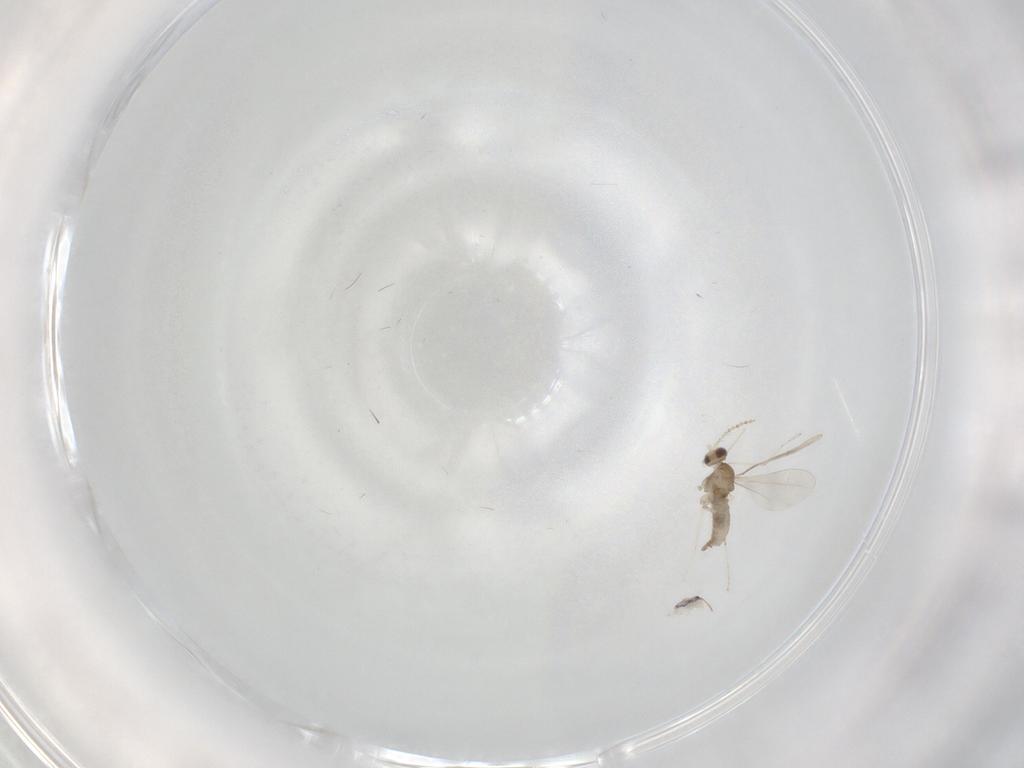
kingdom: Animalia
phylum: Arthropoda
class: Insecta
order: Diptera
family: Cecidomyiidae
